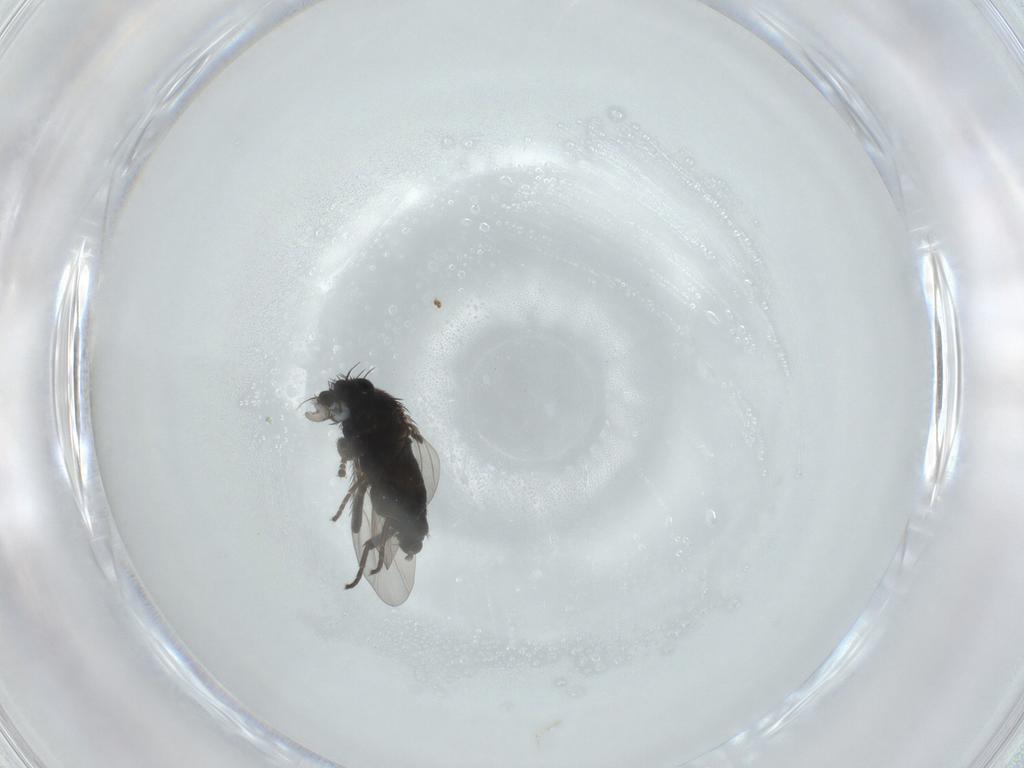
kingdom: Animalia
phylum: Arthropoda
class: Insecta
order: Diptera
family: Phoridae
